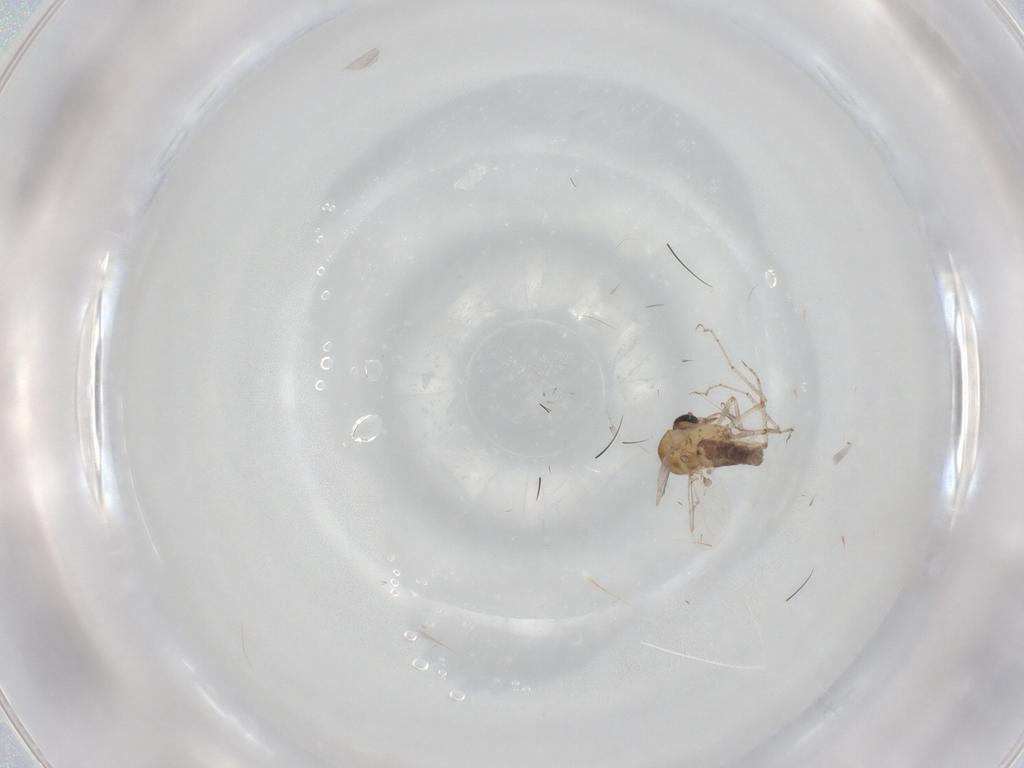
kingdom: Animalia
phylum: Arthropoda
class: Insecta
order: Diptera
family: Ceratopogonidae
